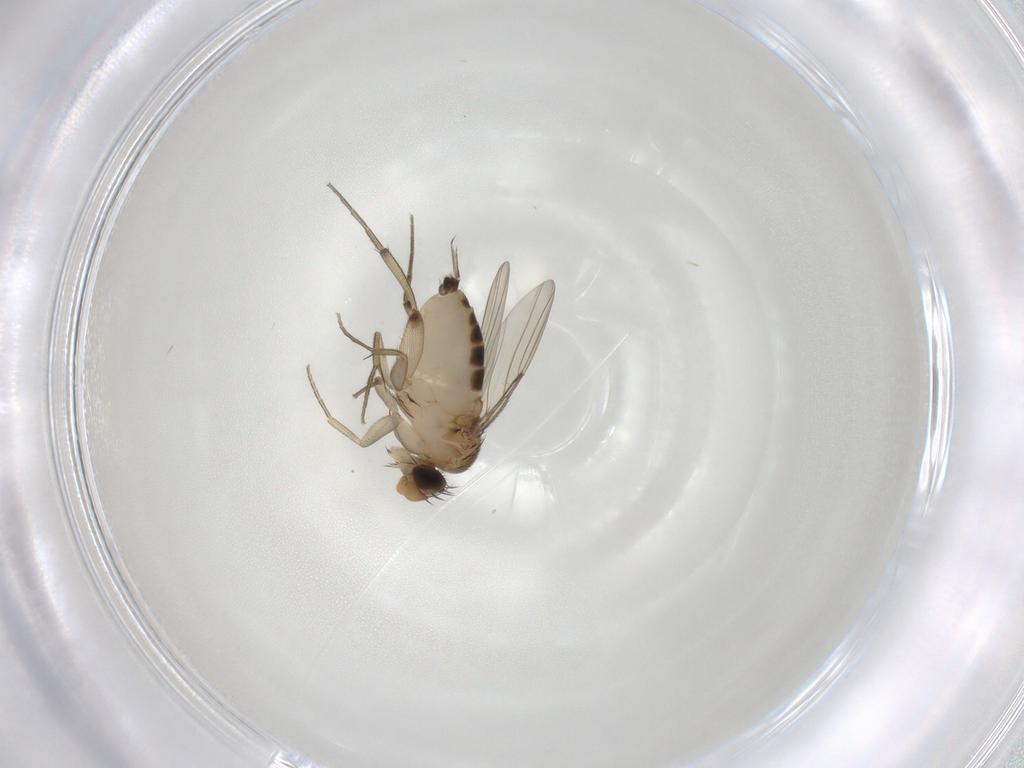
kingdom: Animalia
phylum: Arthropoda
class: Insecta
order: Diptera
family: Phoridae
